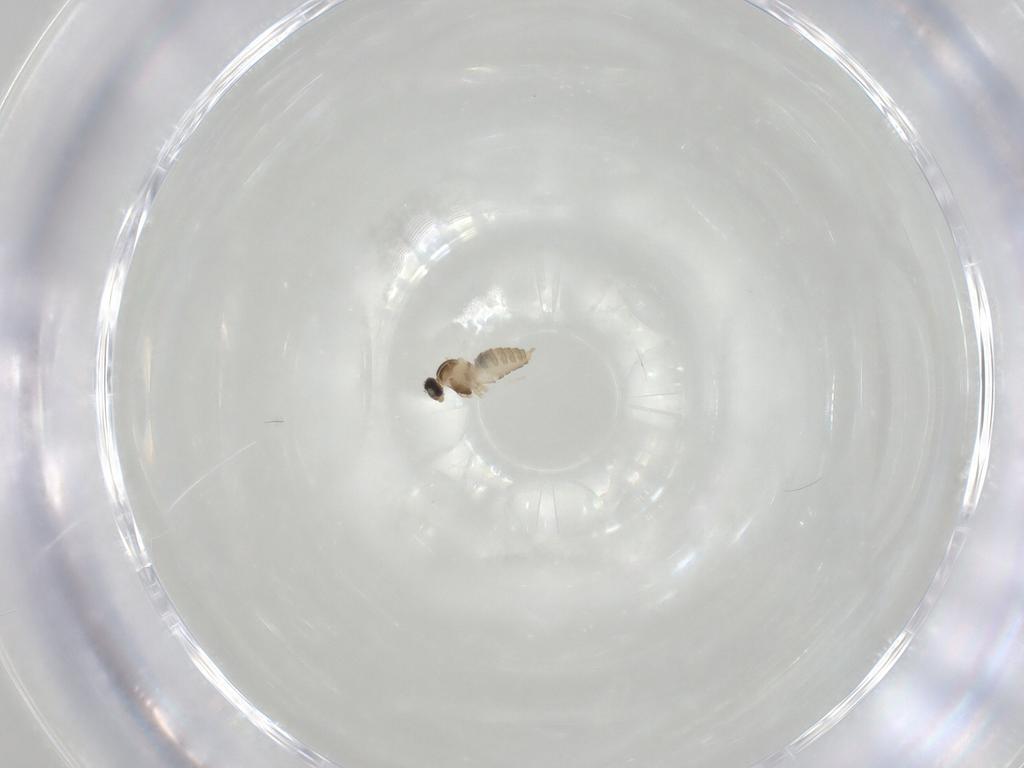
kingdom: Animalia
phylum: Arthropoda
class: Insecta
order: Diptera
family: Cecidomyiidae
